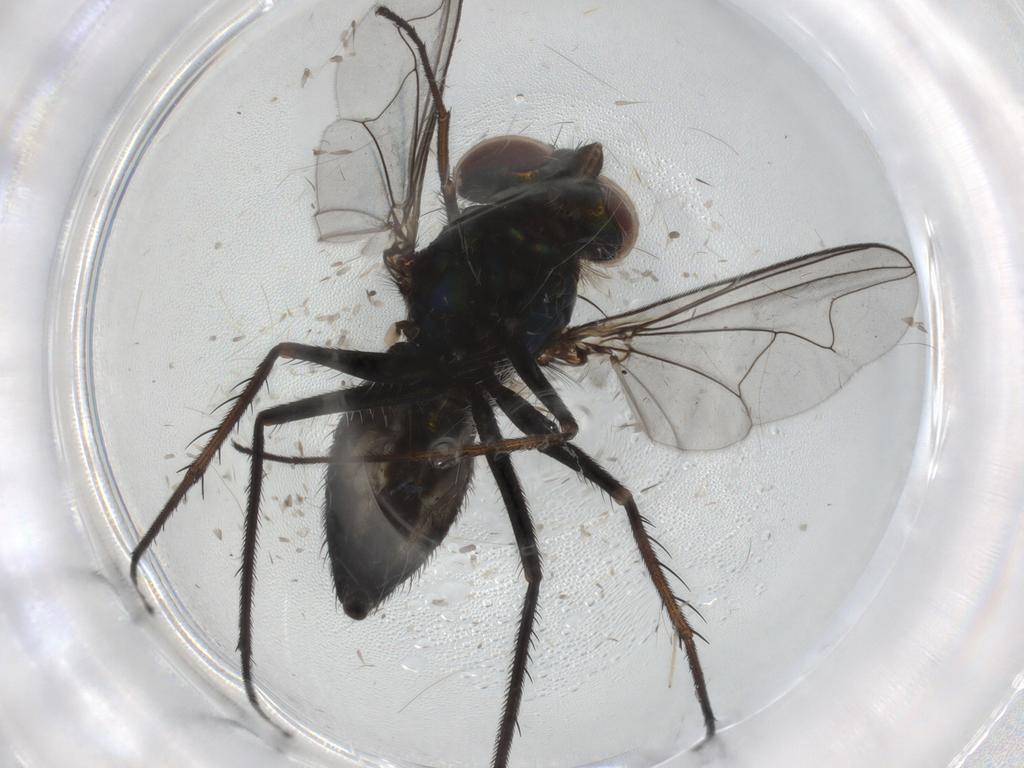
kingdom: Animalia
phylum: Arthropoda
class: Insecta
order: Diptera
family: Dolichopodidae
